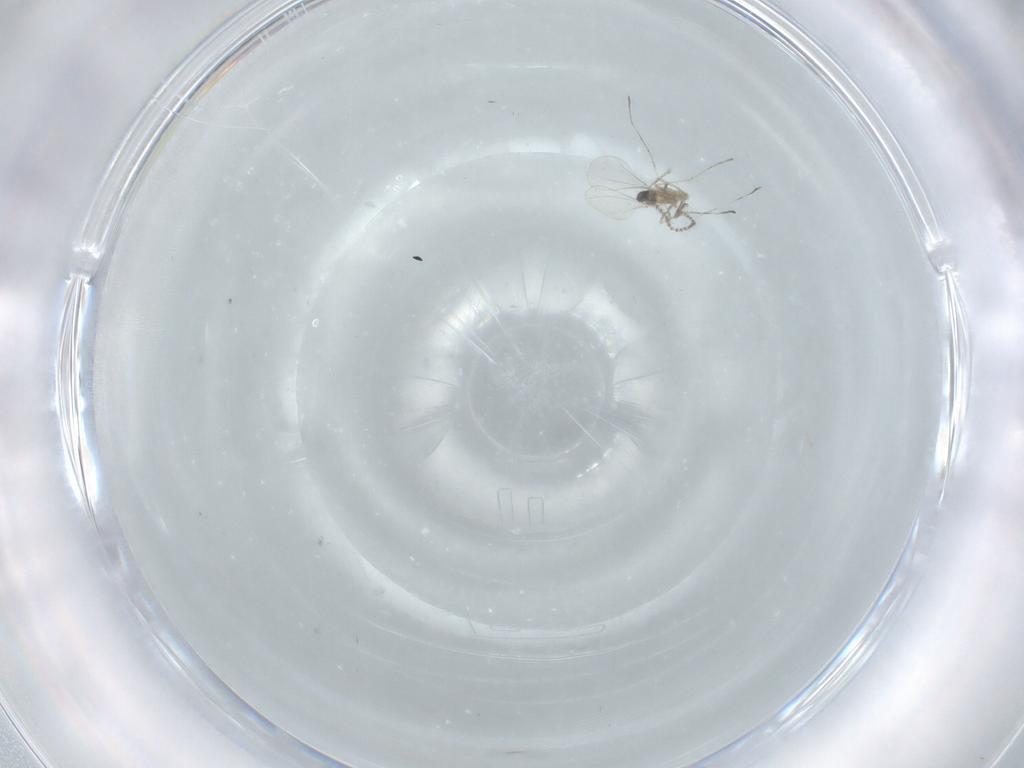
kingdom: Animalia
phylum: Arthropoda
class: Insecta
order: Diptera
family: Cecidomyiidae
